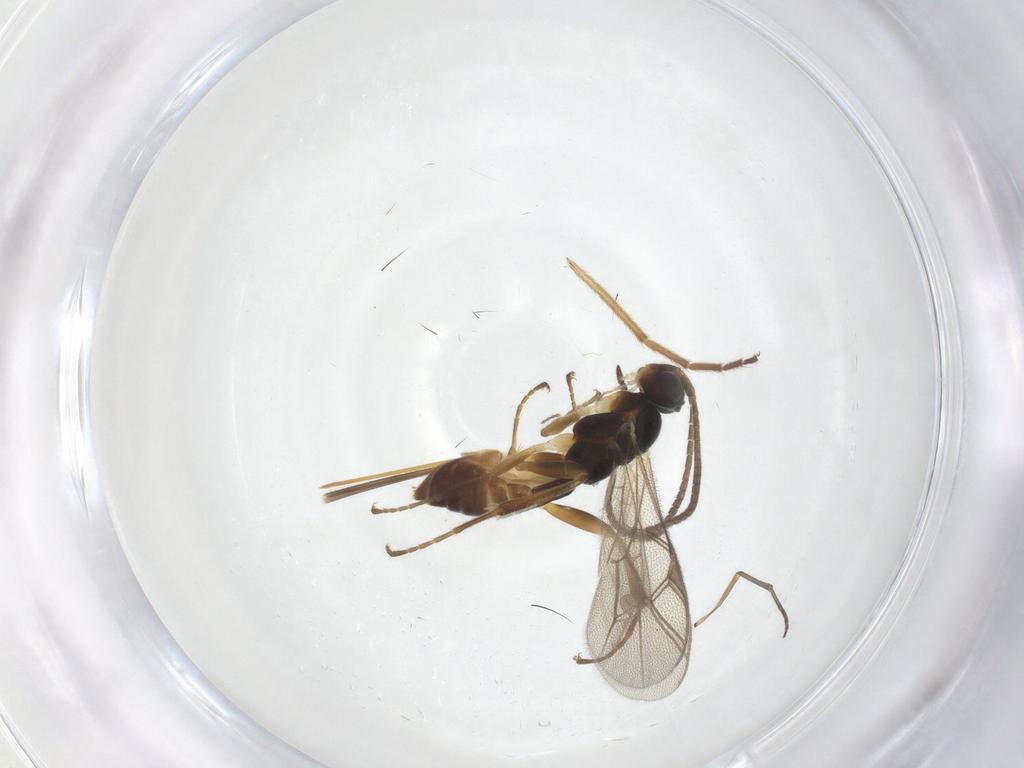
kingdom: Animalia
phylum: Arthropoda
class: Insecta
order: Hymenoptera
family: Ichneumonidae
